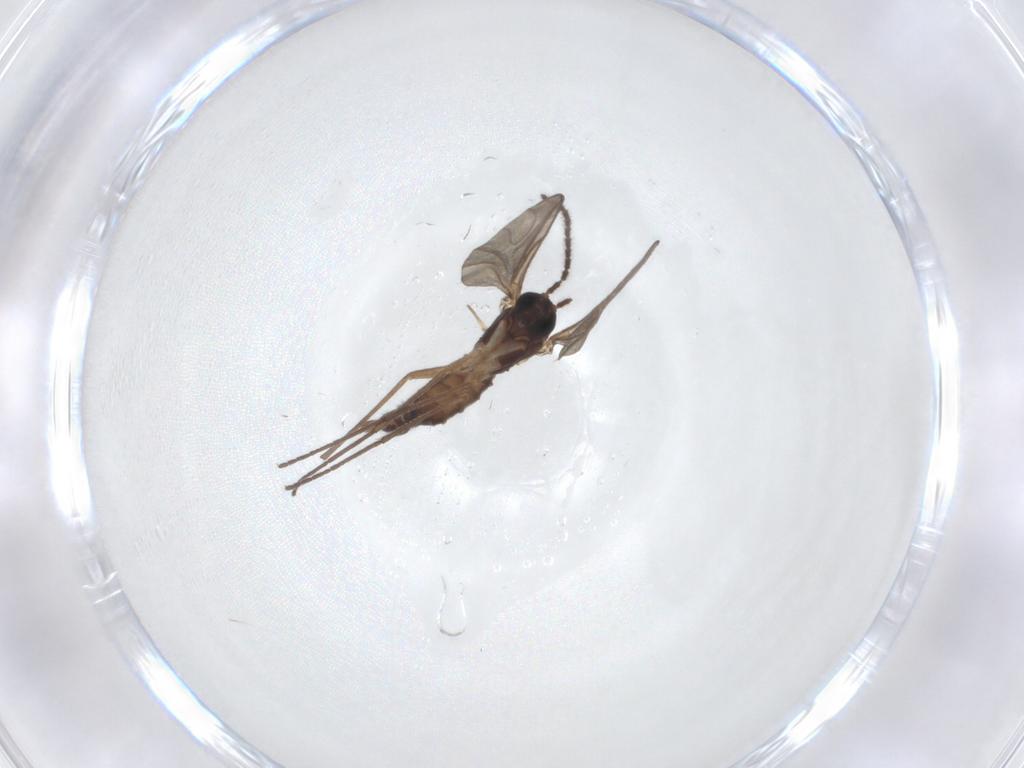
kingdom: Animalia
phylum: Arthropoda
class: Insecta
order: Diptera
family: Sciaridae
